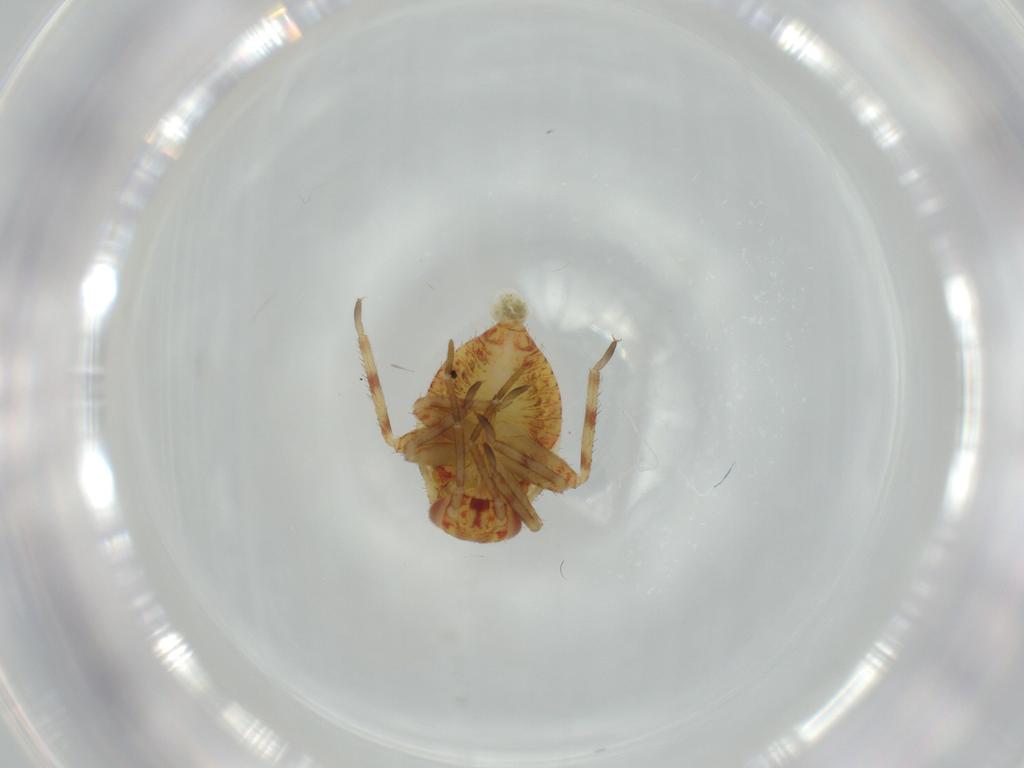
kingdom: Animalia
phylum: Arthropoda
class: Insecta
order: Hemiptera
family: Miridae
